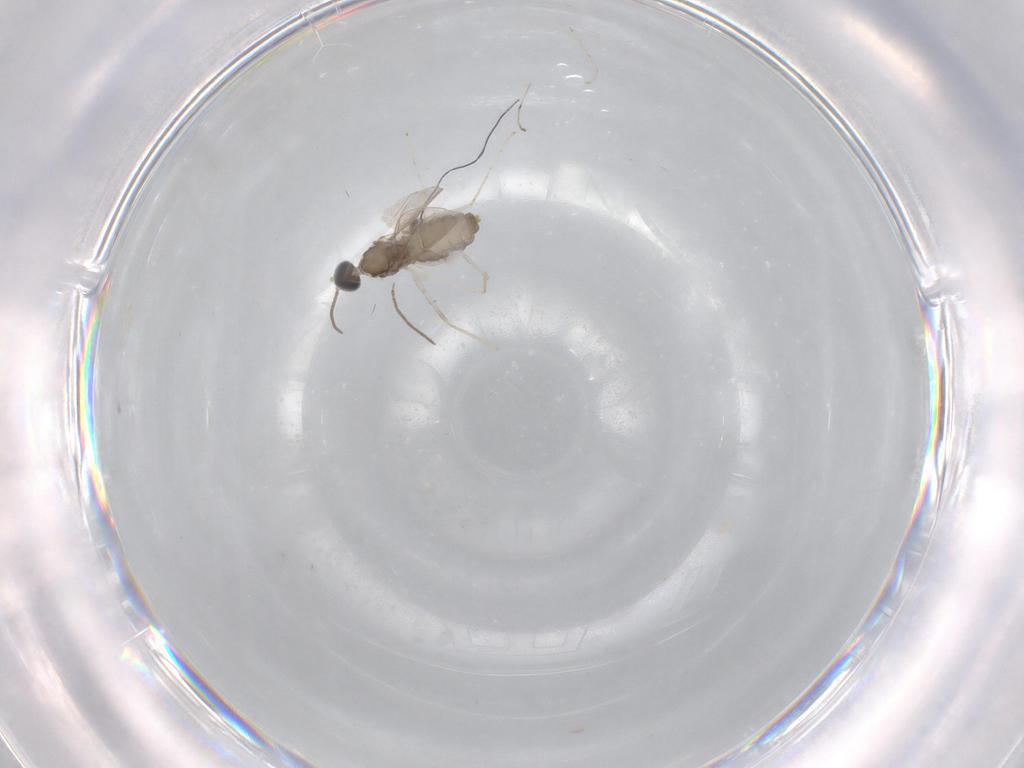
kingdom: Animalia
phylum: Arthropoda
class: Insecta
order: Diptera
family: Cecidomyiidae
